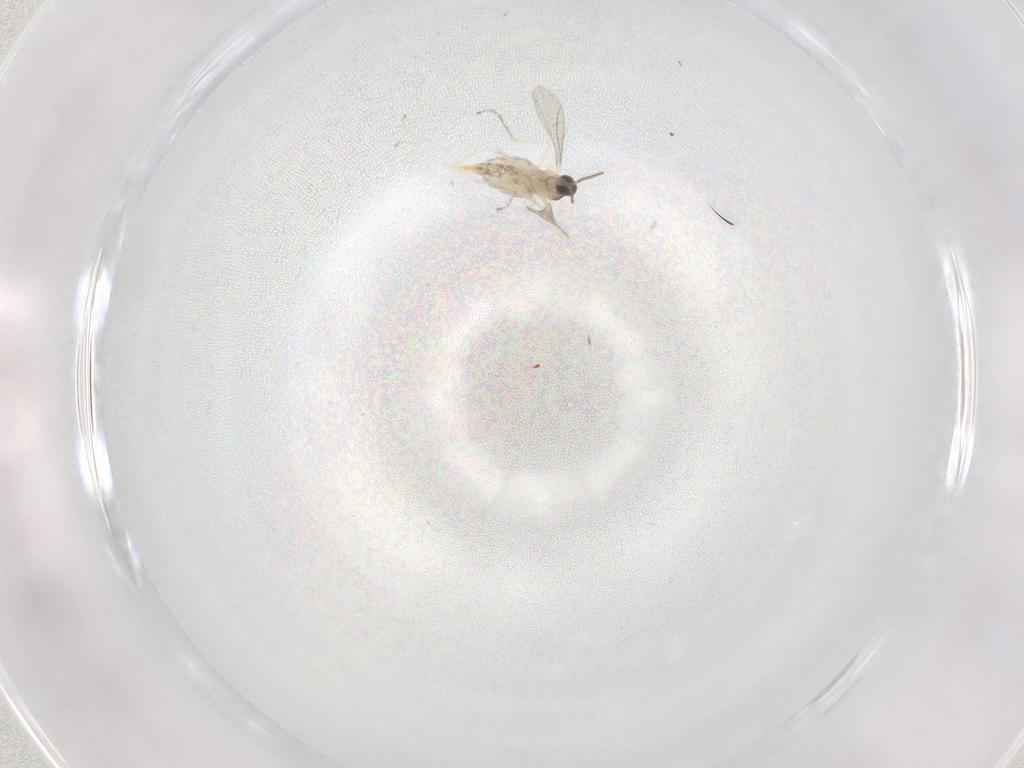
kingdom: Animalia
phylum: Arthropoda
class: Insecta
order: Diptera
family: Cecidomyiidae
